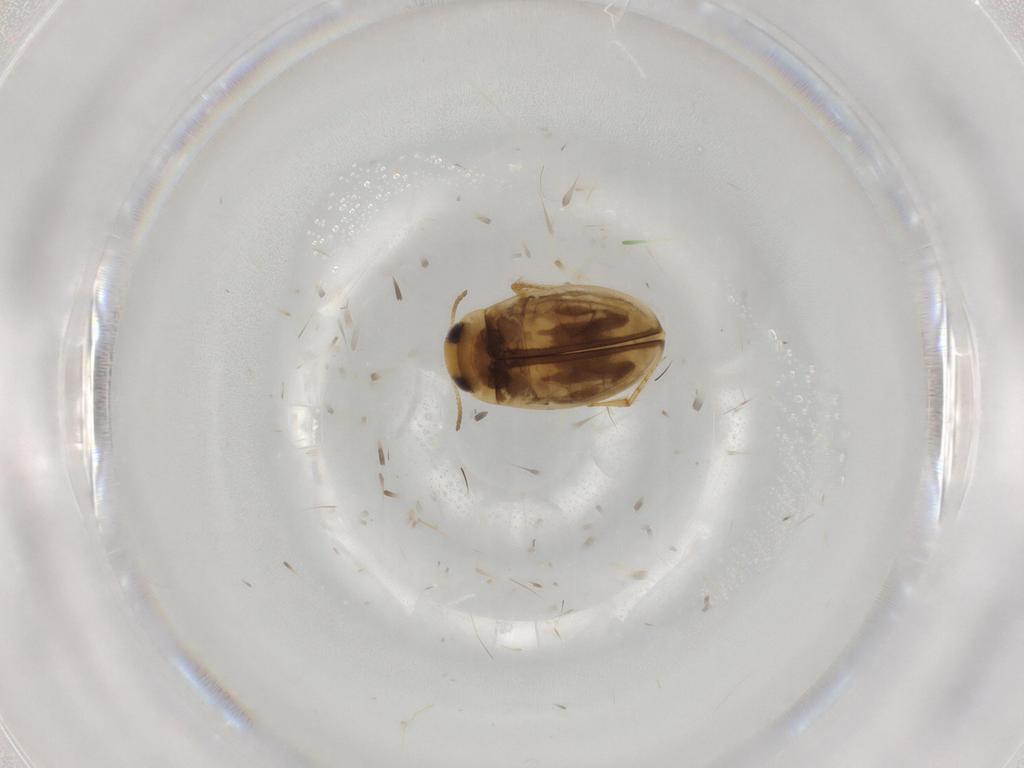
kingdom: Animalia
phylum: Arthropoda
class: Insecta
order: Coleoptera
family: Dytiscidae
